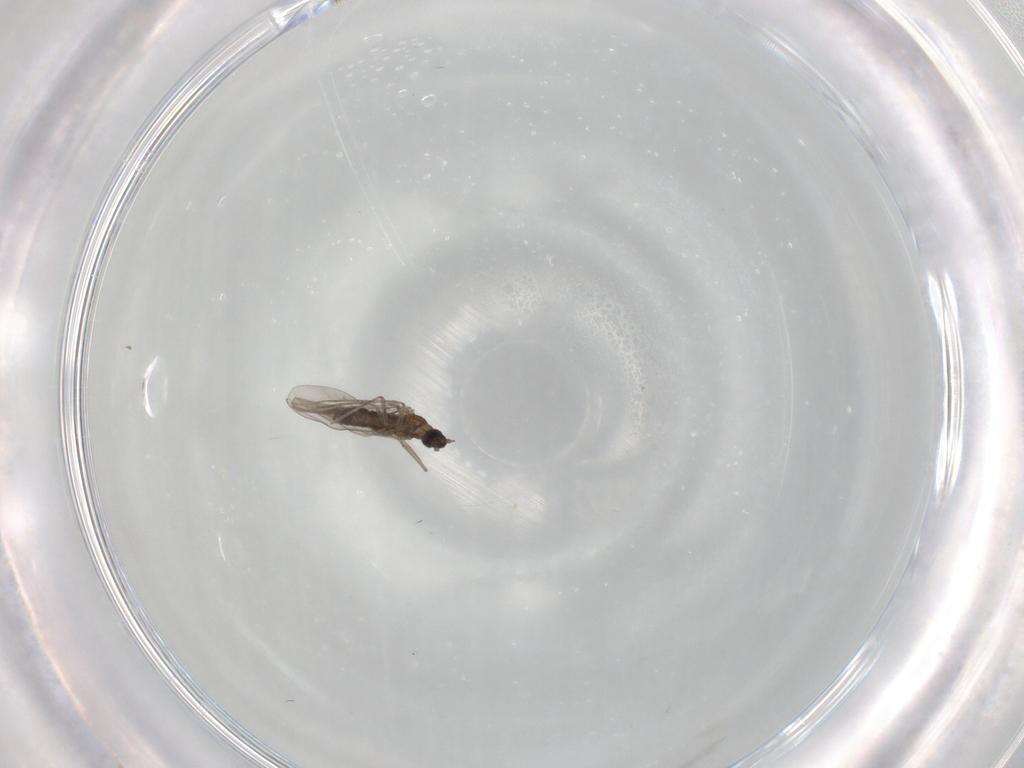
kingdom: Animalia
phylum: Arthropoda
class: Insecta
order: Diptera
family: Cecidomyiidae
